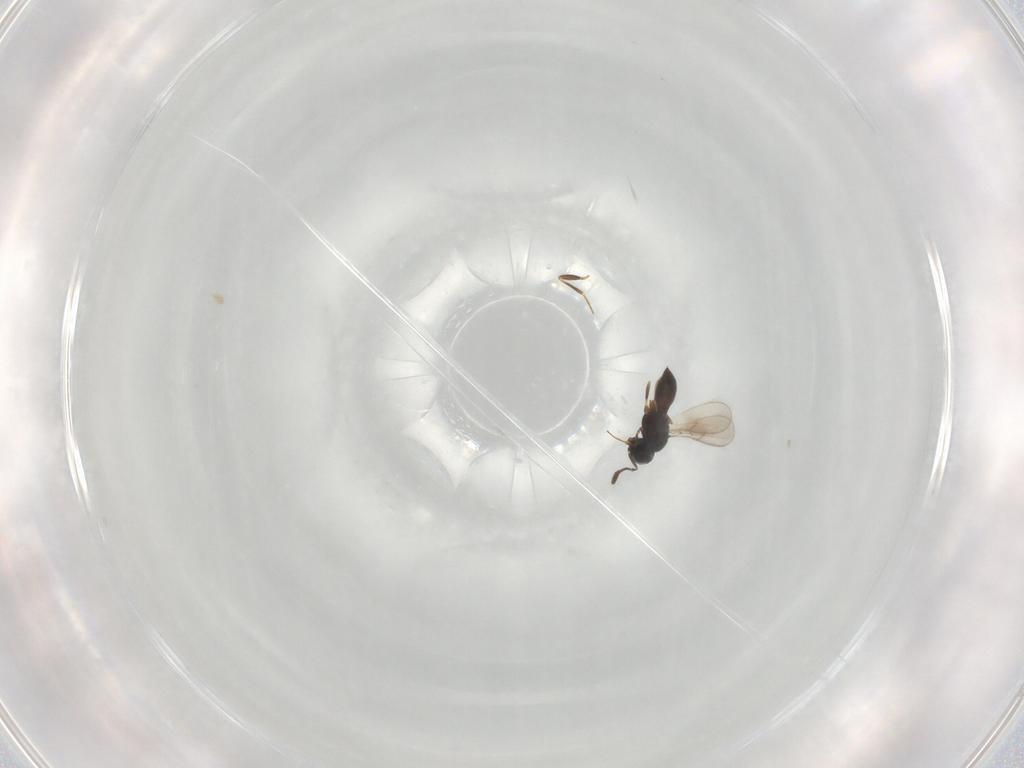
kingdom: Animalia
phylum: Arthropoda
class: Insecta
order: Hymenoptera
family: Scelionidae
